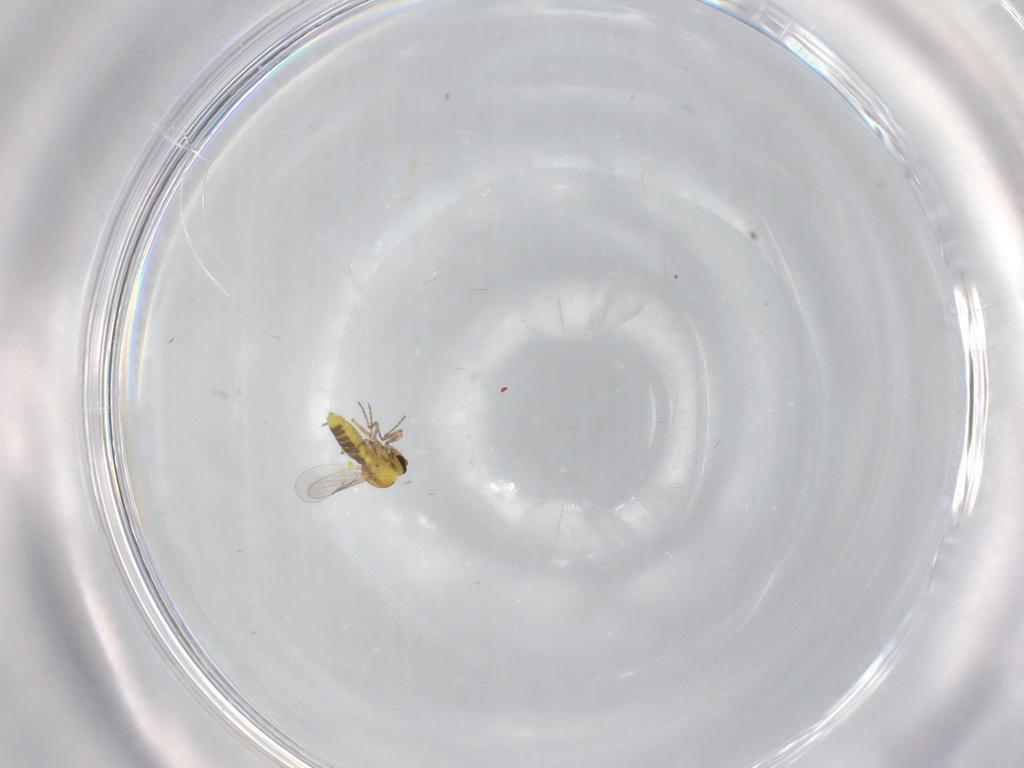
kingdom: Animalia
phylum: Arthropoda
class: Insecta
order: Diptera
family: Ceratopogonidae
